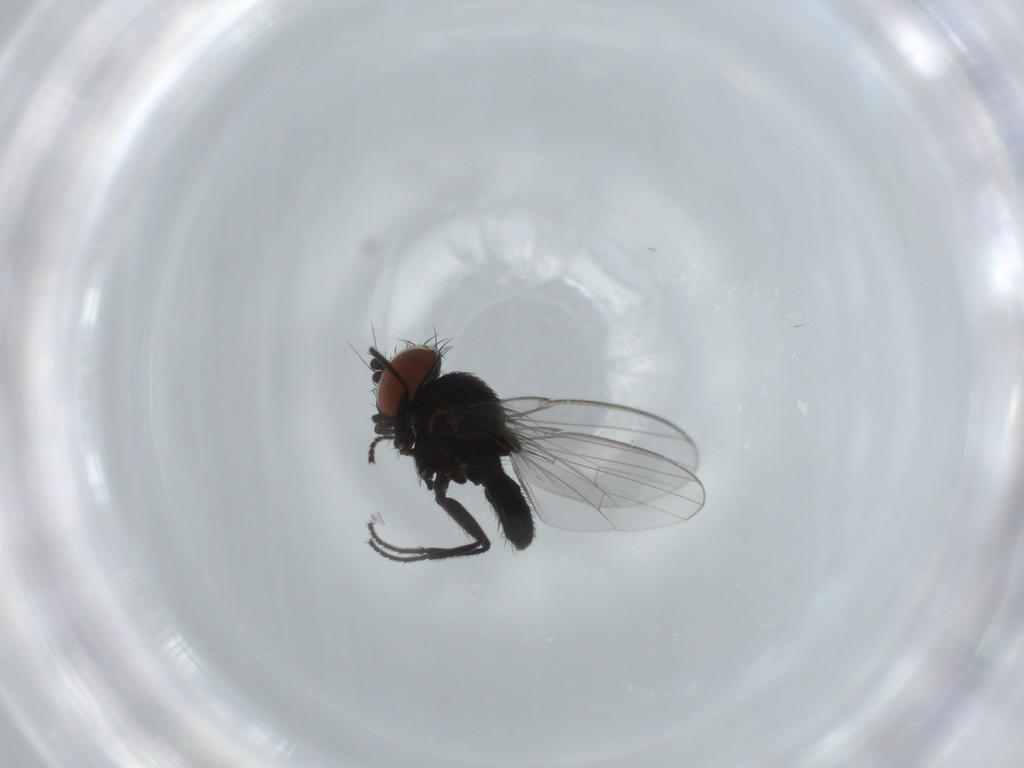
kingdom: Animalia
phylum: Arthropoda
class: Insecta
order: Diptera
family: Milichiidae
